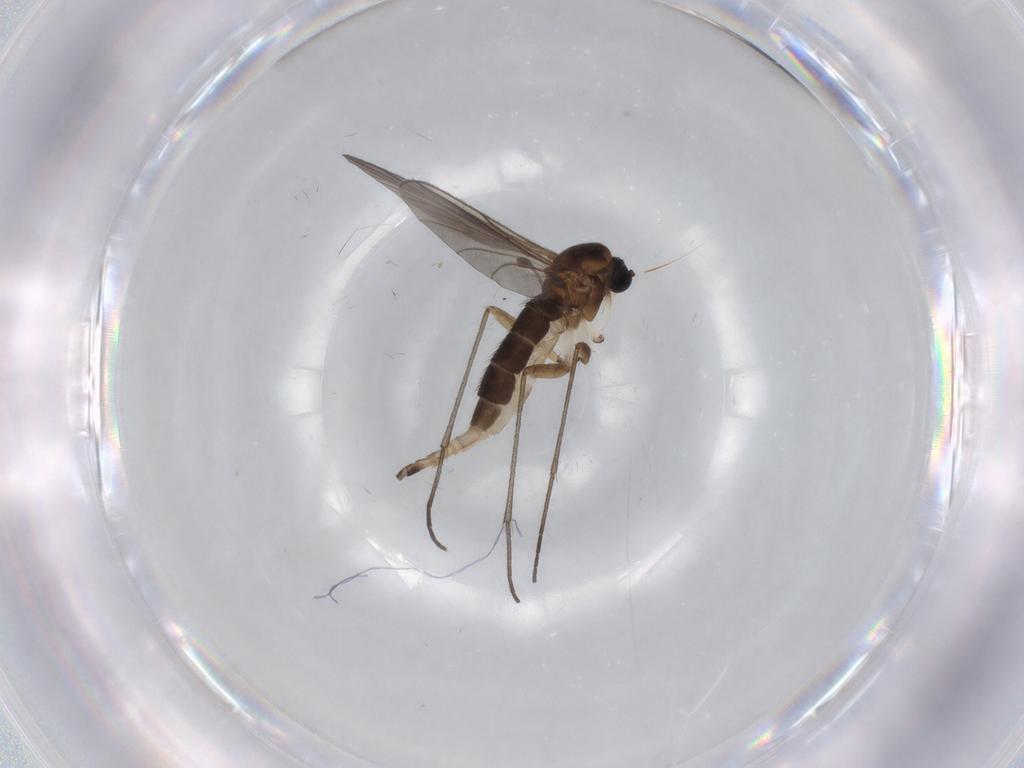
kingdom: Animalia
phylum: Arthropoda
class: Insecta
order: Diptera
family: Sciaridae
